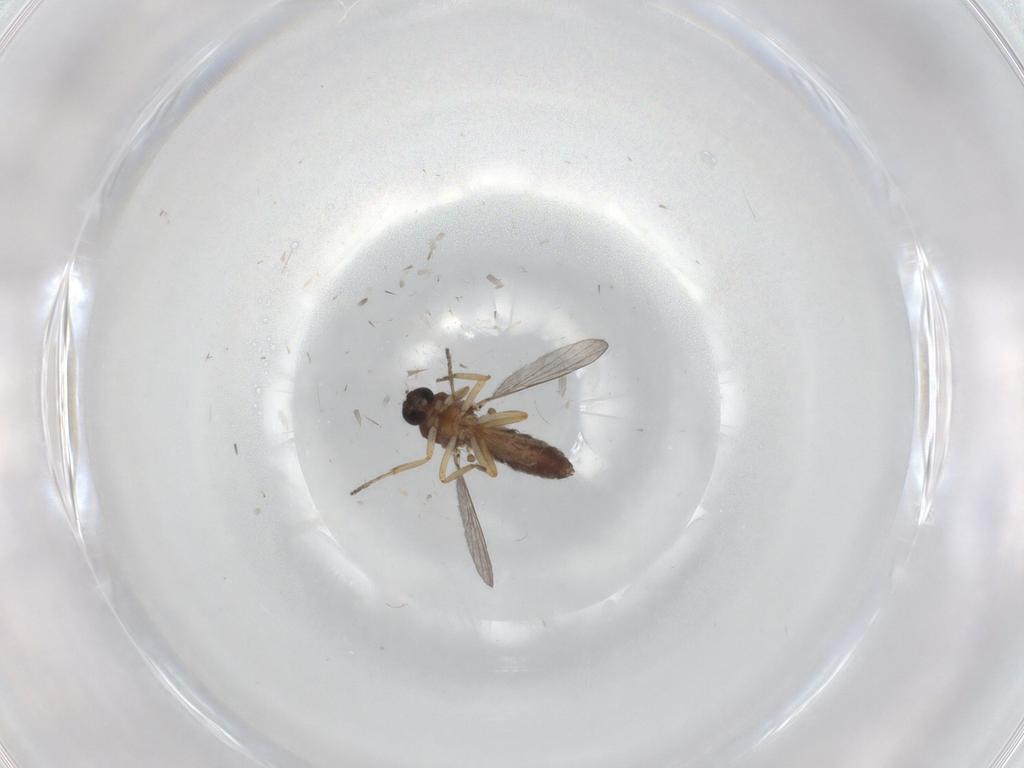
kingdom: Animalia
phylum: Arthropoda
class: Insecta
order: Diptera
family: Ceratopogonidae
